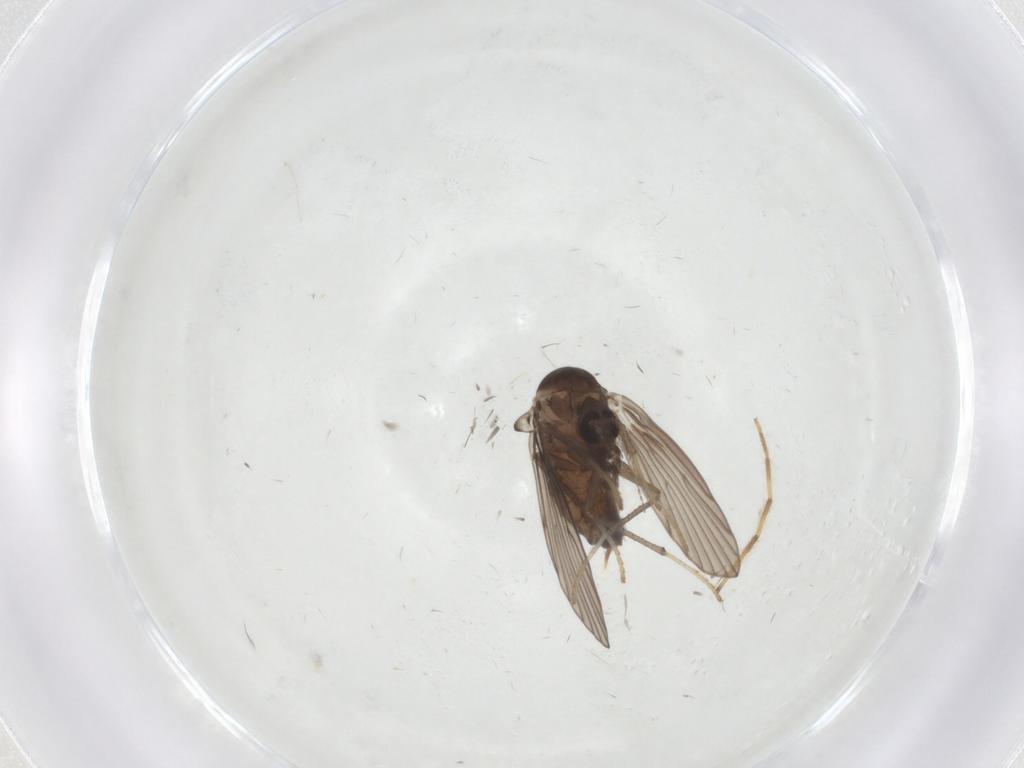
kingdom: Animalia
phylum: Arthropoda
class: Insecta
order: Diptera
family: Psychodidae
